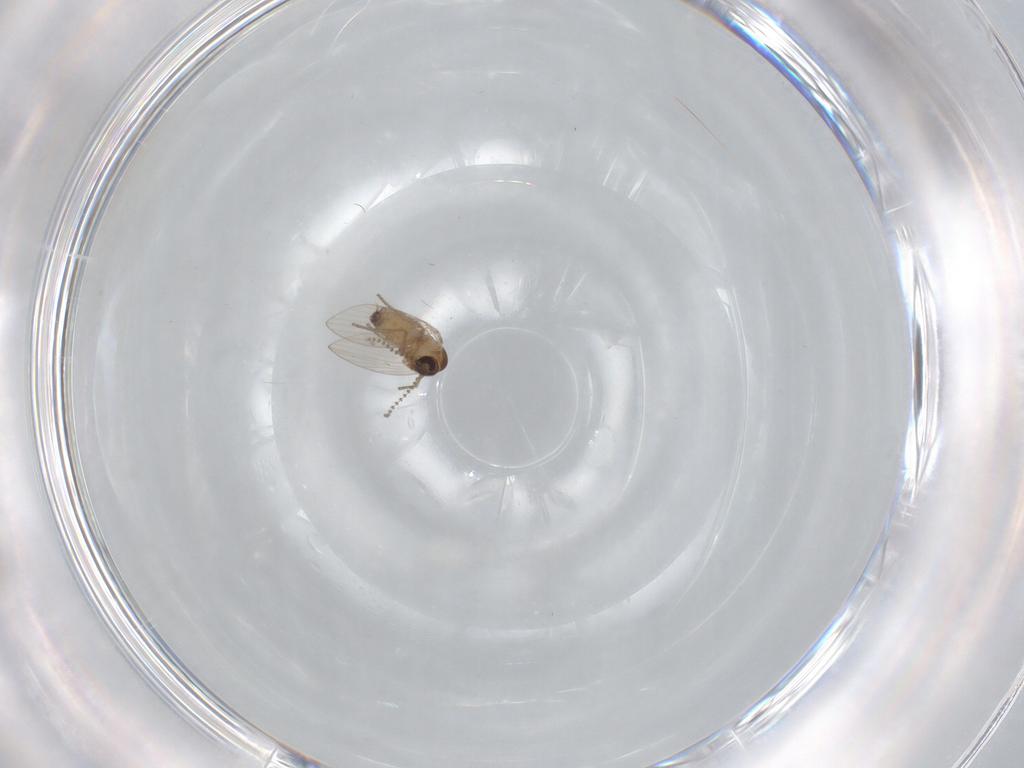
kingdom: Animalia
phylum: Arthropoda
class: Insecta
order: Diptera
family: Psychodidae
